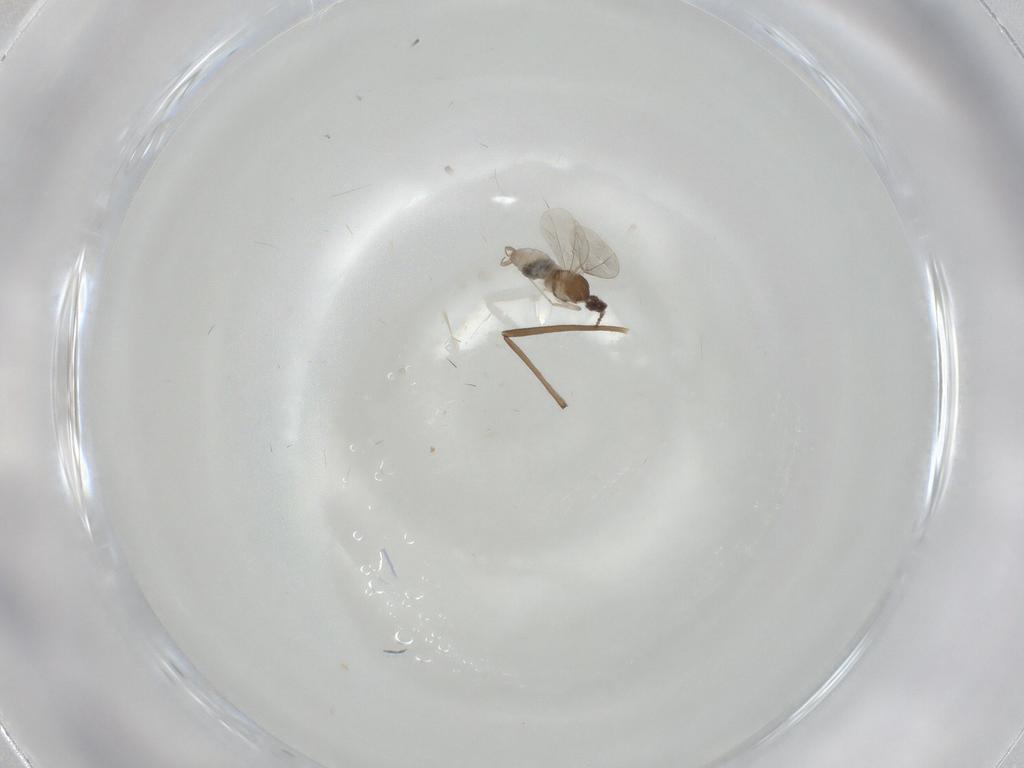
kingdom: Animalia
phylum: Arthropoda
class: Insecta
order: Diptera
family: Cecidomyiidae
